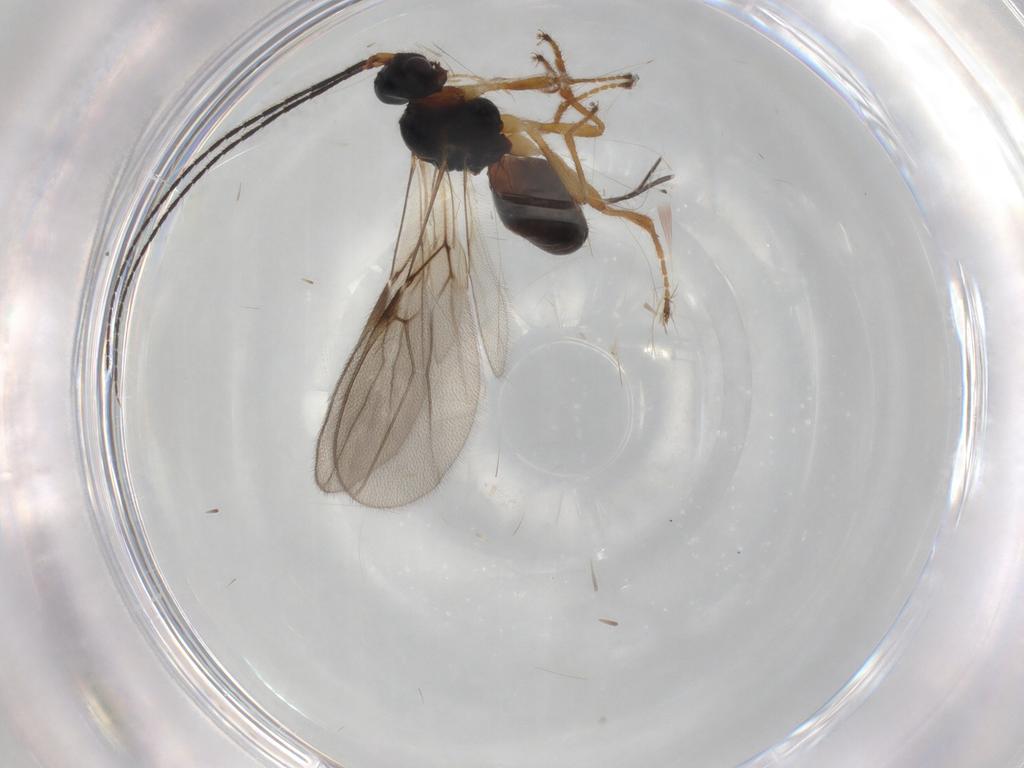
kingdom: Animalia
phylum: Arthropoda
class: Insecta
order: Hymenoptera
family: Braconidae
